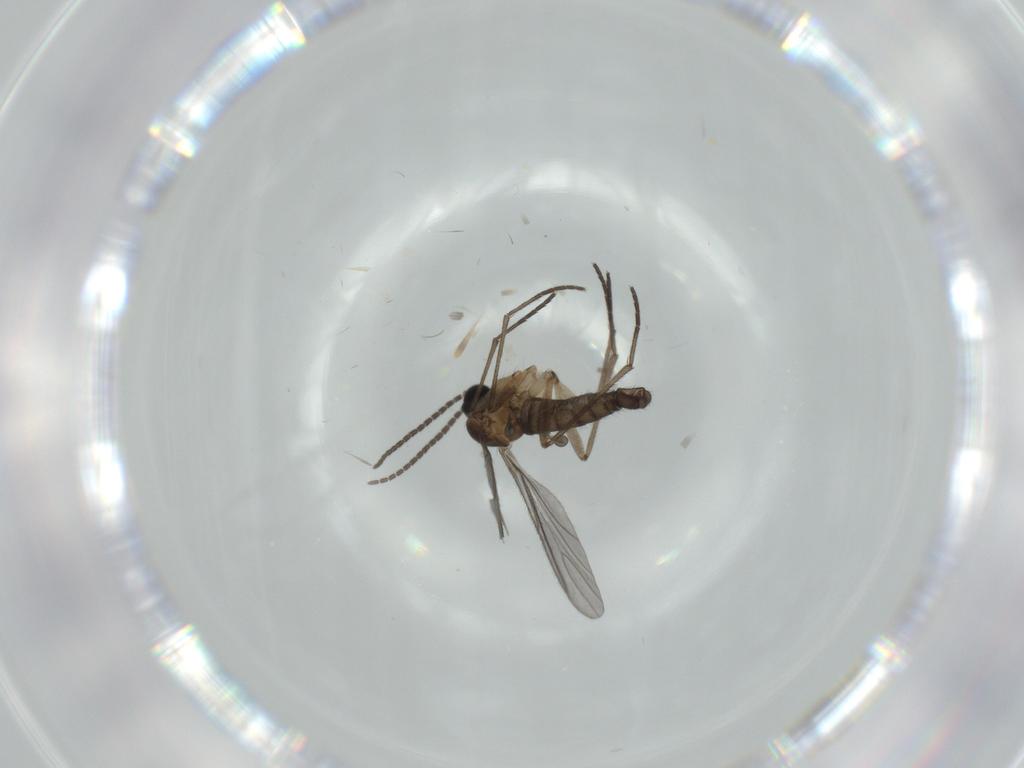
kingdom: Animalia
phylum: Arthropoda
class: Insecta
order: Diptera
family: Sciaridae
